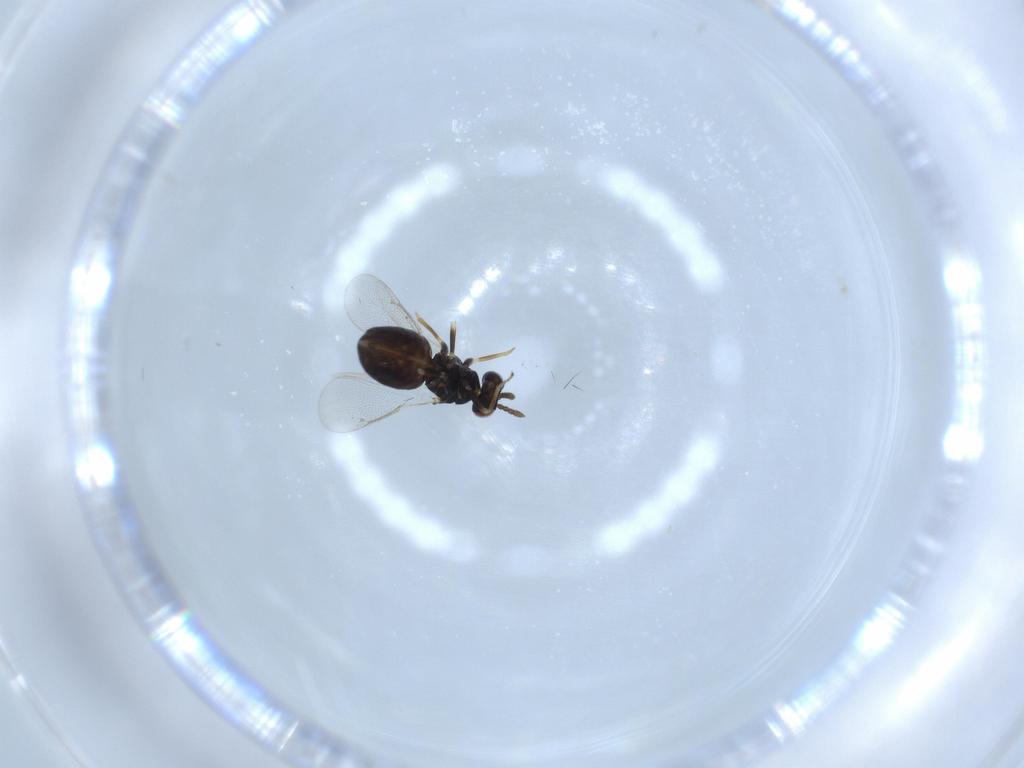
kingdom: Animalia
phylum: Arthropoda
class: Insecta
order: Hymenoptera
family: Eulophidae
